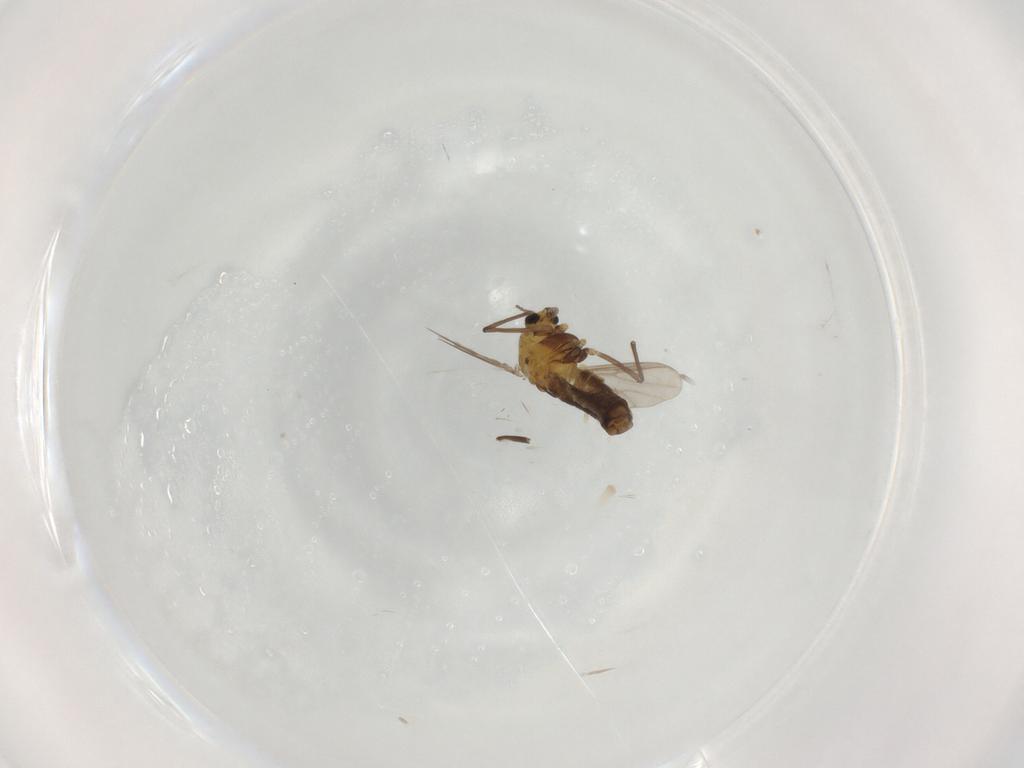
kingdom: Animalia
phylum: Arthropoda
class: Insecta
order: Diptera
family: Chironomidae
